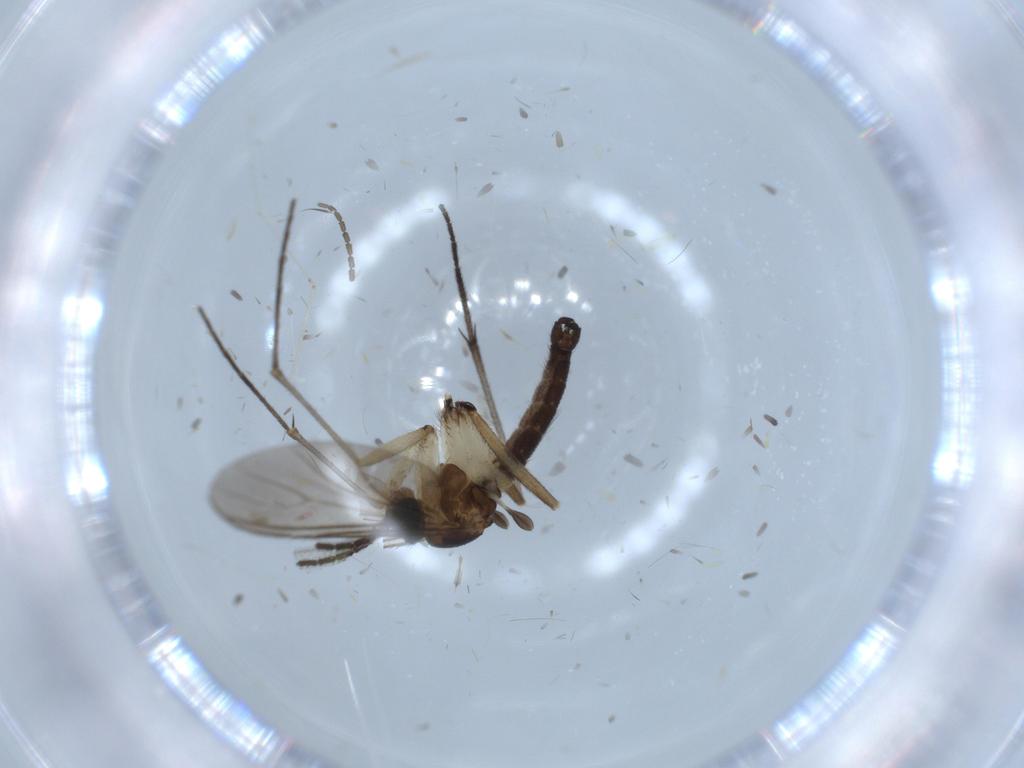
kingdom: Animalia
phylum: Arthropoda
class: Insecta
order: Diptera
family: Sciaridae
